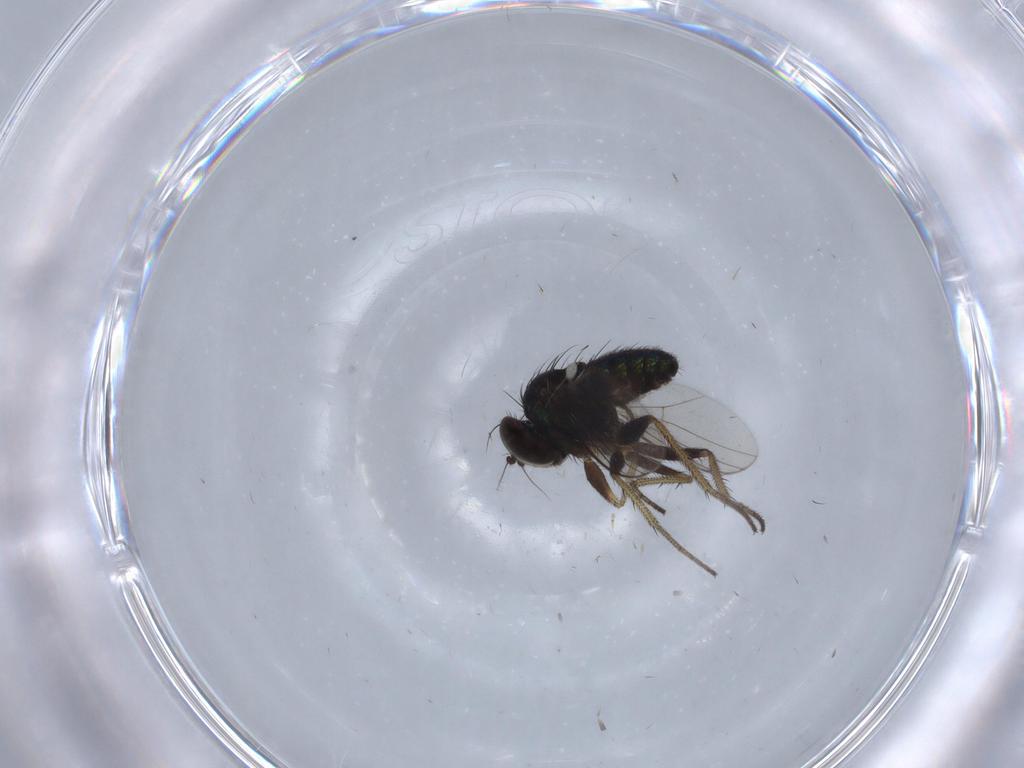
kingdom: Animalia
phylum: Arthropoda
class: Insecta
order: Diptera
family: Dolichopodidae
